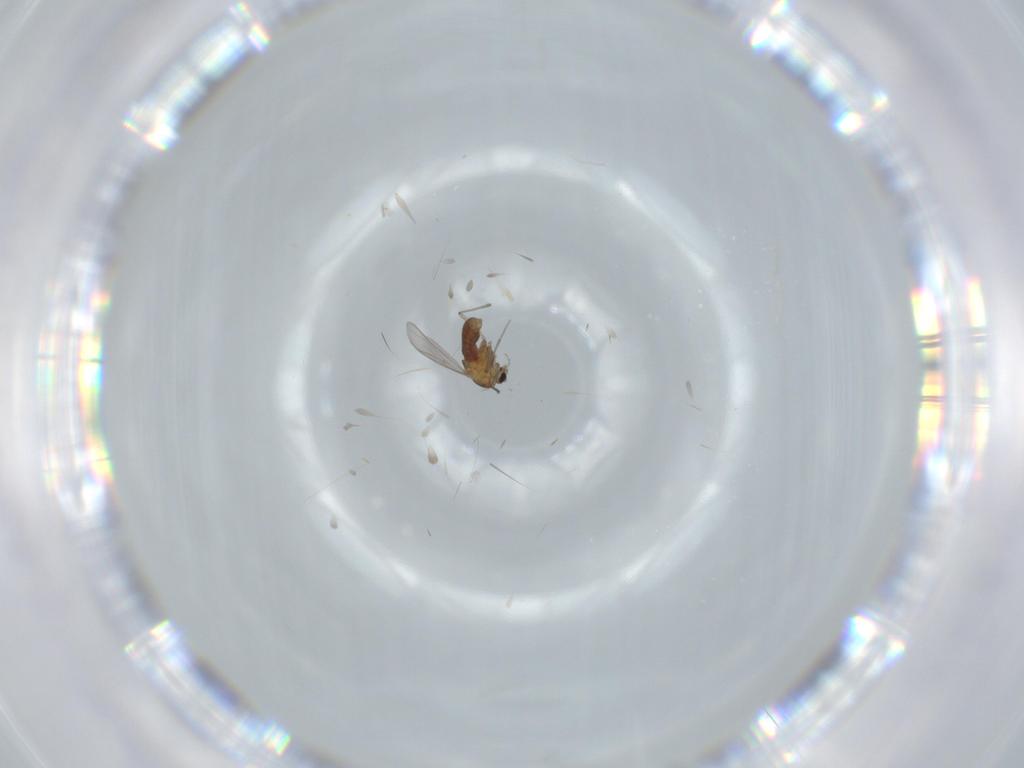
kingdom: Animalia
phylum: Arthropoda
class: Insecta
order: Diptera
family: Chironomidae
